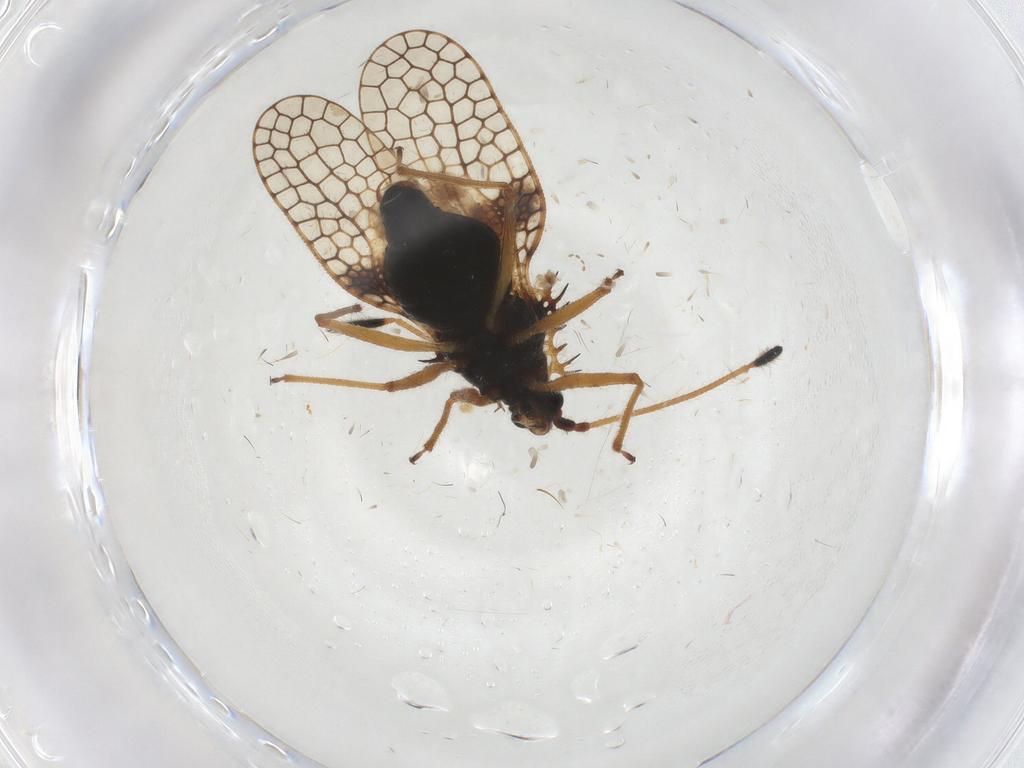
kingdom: Animalia
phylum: Arthropoda
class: Insecta
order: Hemiptera
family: Tingidae
